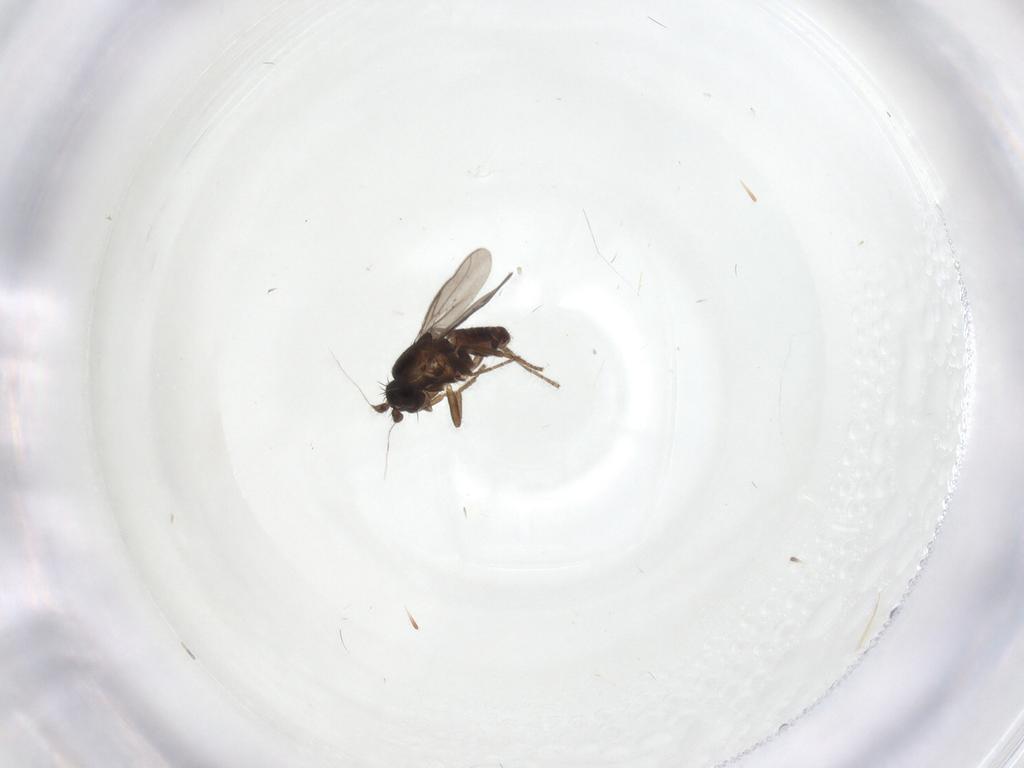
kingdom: Animalia
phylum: Arthropoda
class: Insecta
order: Diptera
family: Sphaeroceridae
